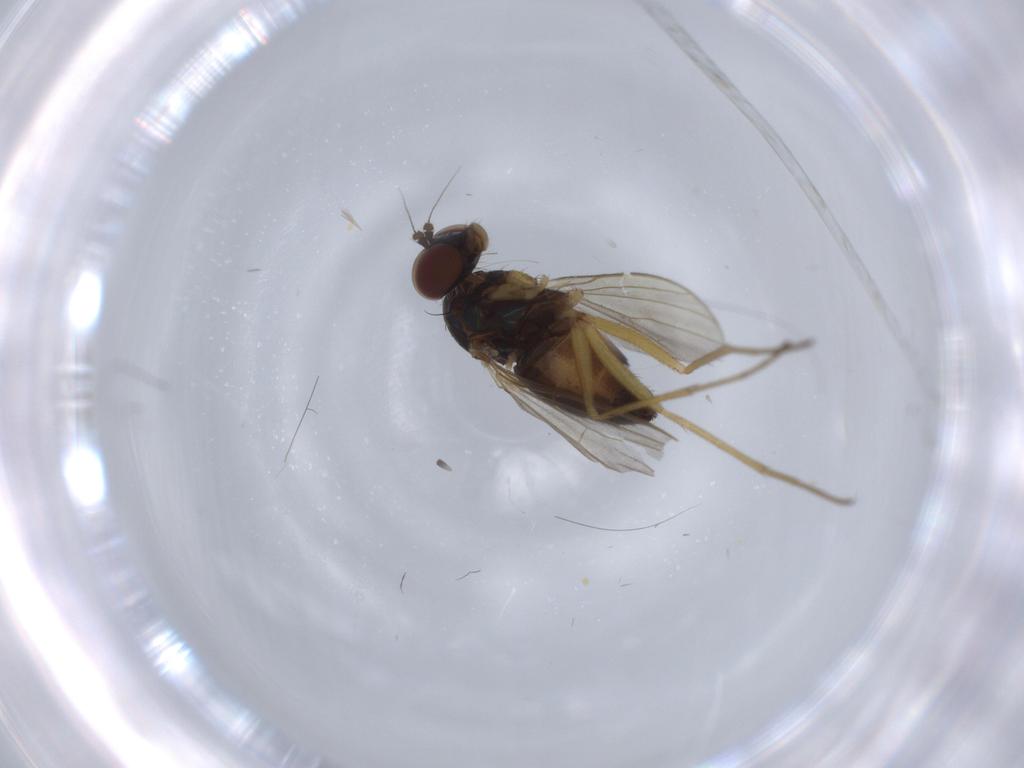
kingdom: Animalia
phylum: Arthropoda
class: Insecta
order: Diptera
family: Dolichopodidae
